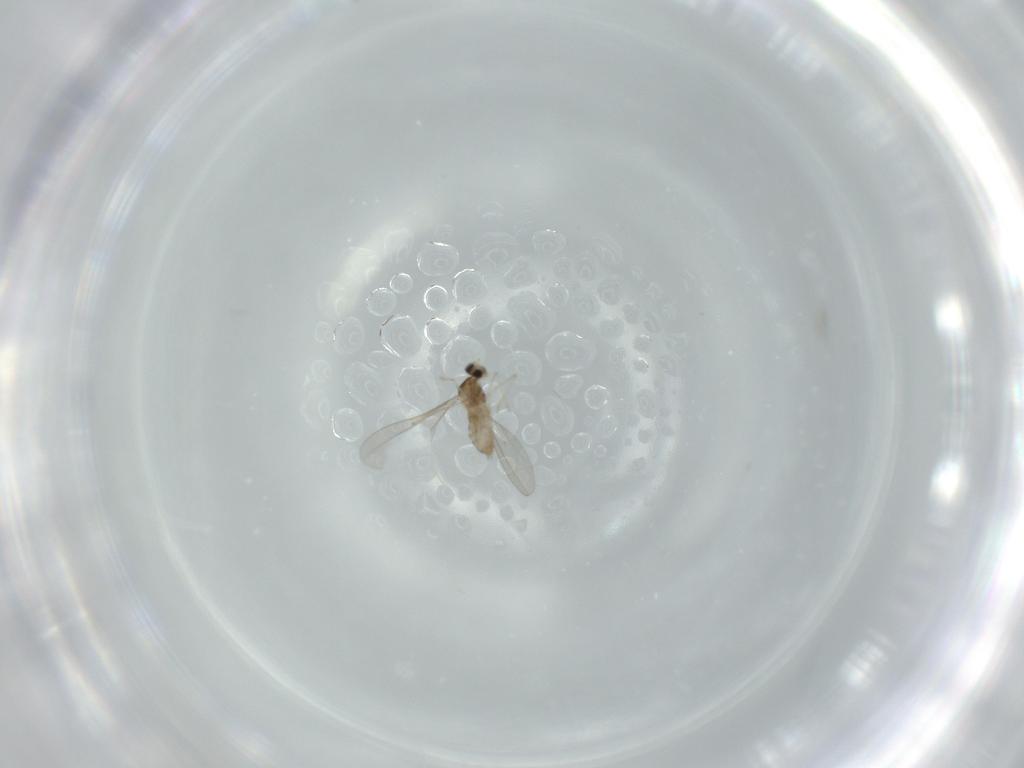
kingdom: Animalia
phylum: Arthropoda
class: Insecta
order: Diptera
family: Cecidomyiidae
